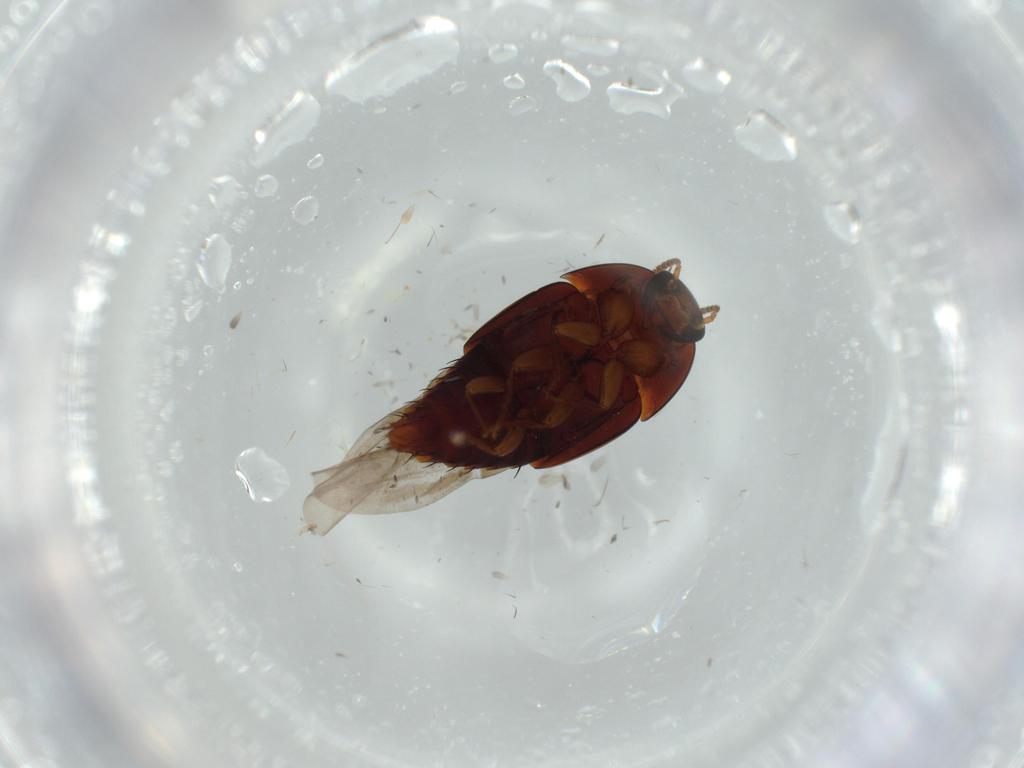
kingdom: Animalia
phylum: Arthropoda
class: Insecta
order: Coleoptera
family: Staphylinidae
